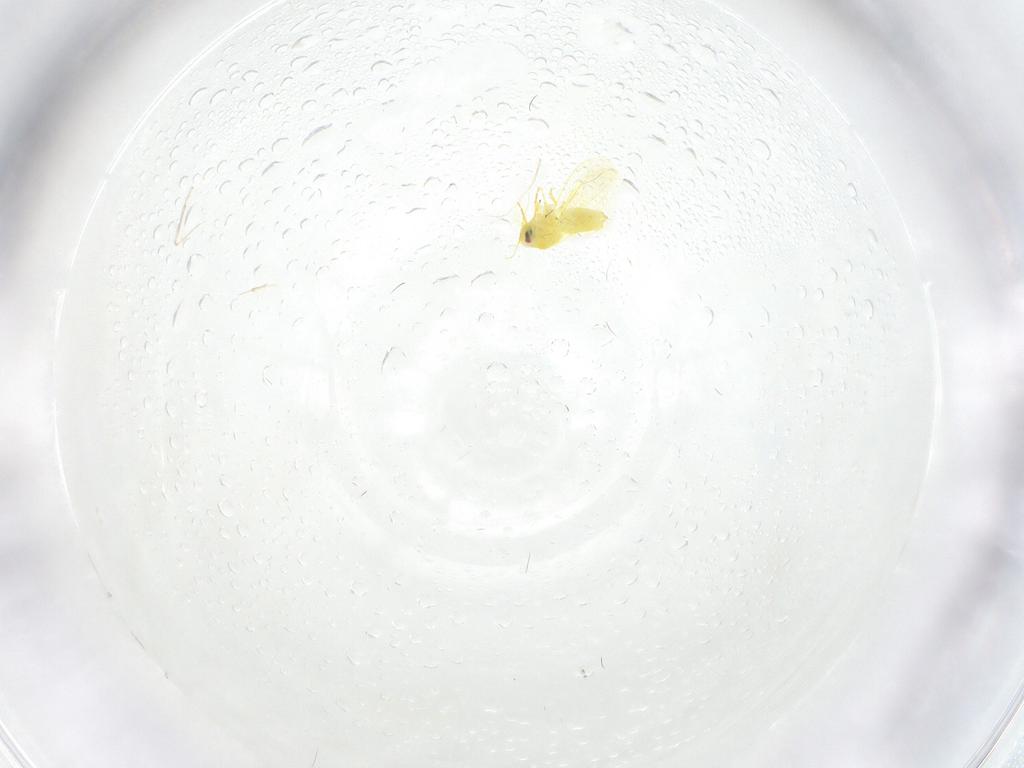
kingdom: Animalia
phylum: Arthropoda
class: Insecta
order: Hemiptera
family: Aleyrodidae
